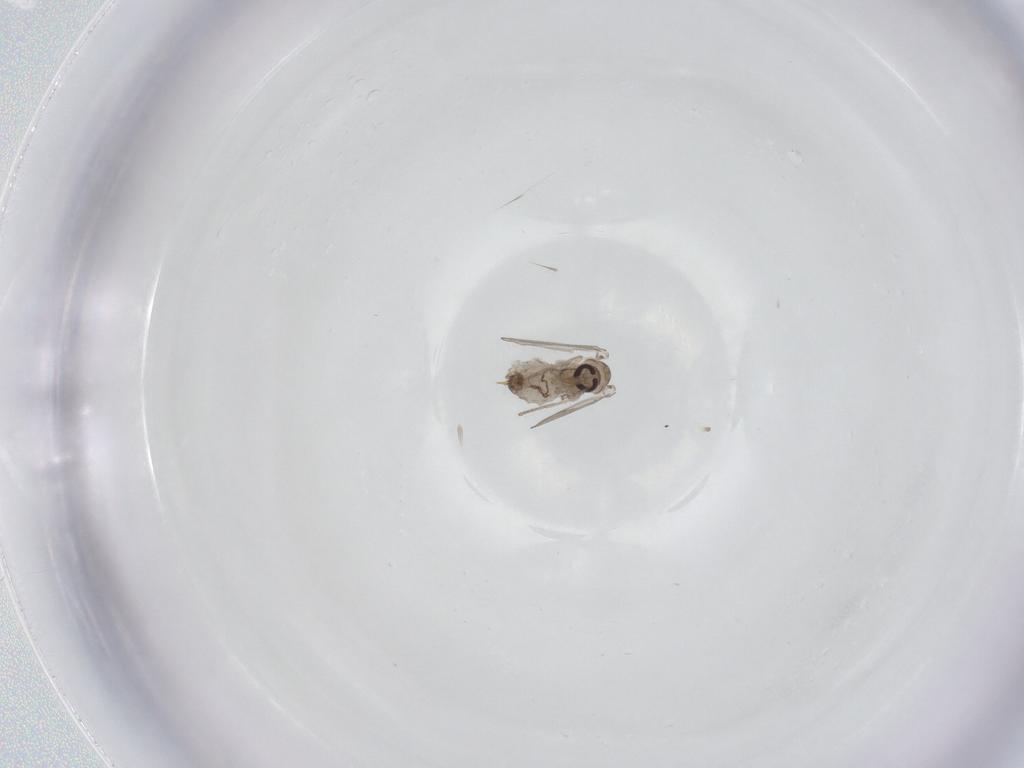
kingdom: Animalia
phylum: Arthropoda
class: Insecta
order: Diptera
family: Psychodidae
